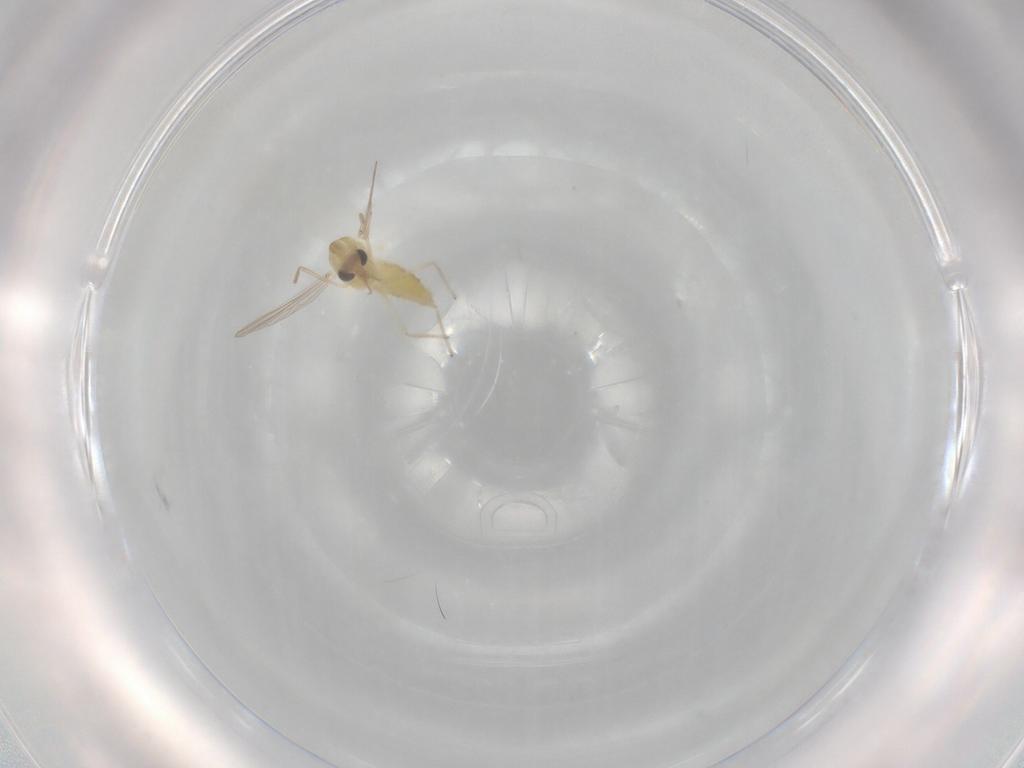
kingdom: Animalia
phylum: Arthropoda
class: Insecta
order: Diptera
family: Chironomidae
